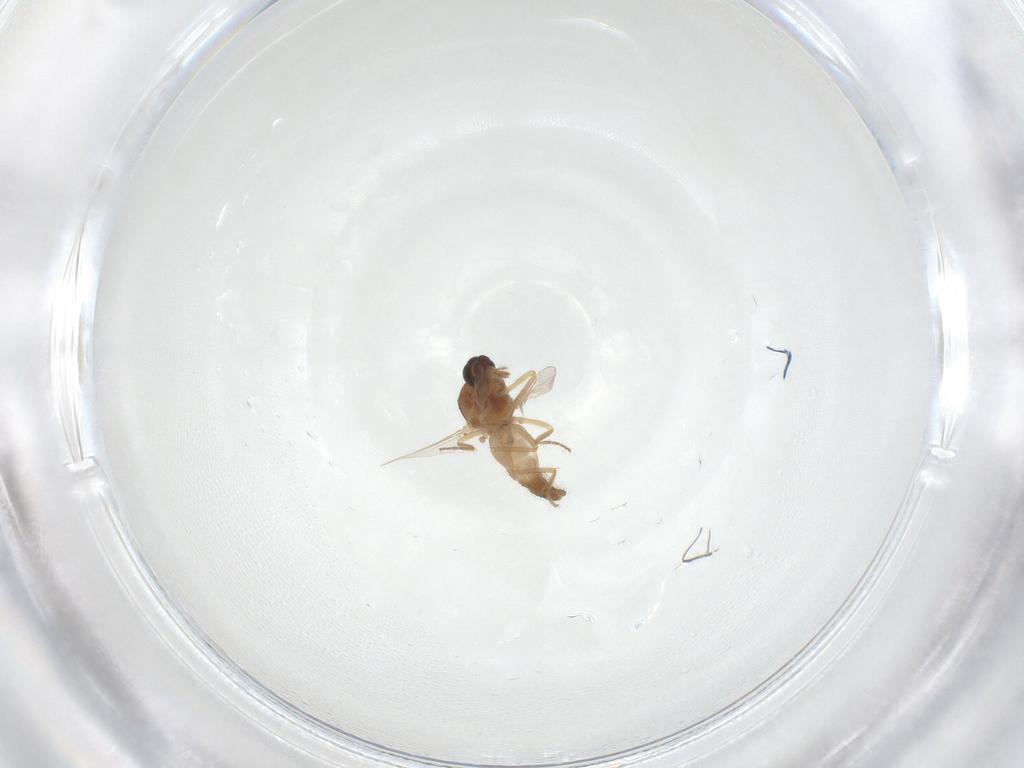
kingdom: Animalia
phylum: Arthropoda
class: Insecta
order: Diptera
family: Ceratopogonidae
